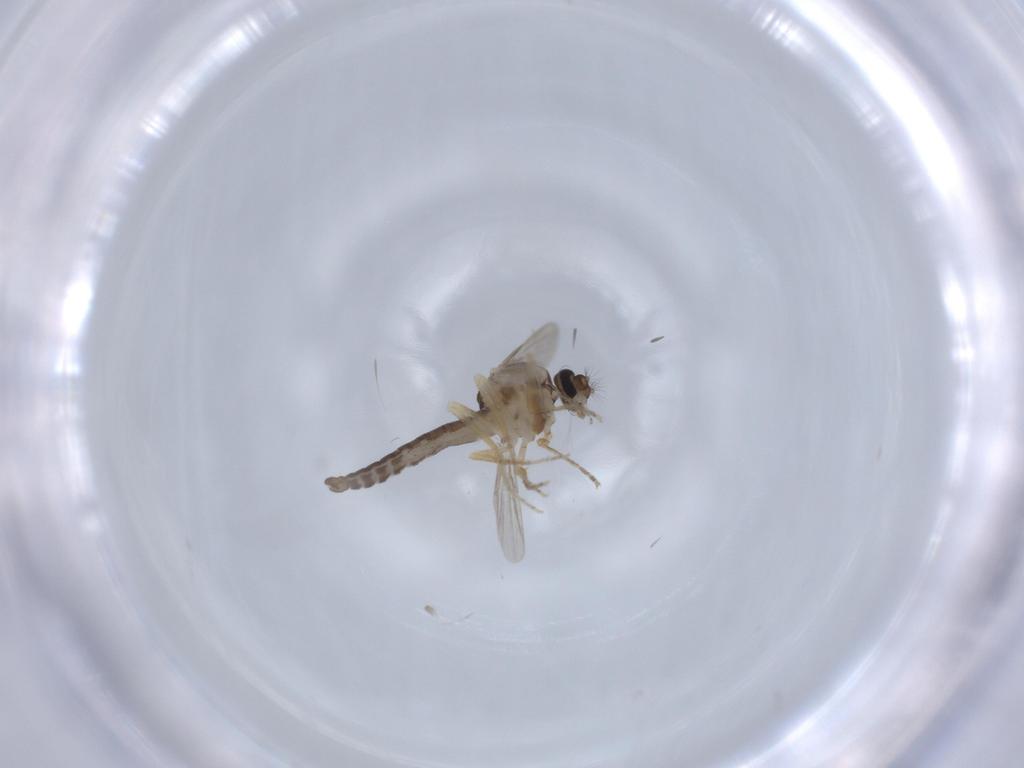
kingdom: Animalia
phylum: Arthropoda
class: Insecta
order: Diptera
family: Ceratopogonidae
